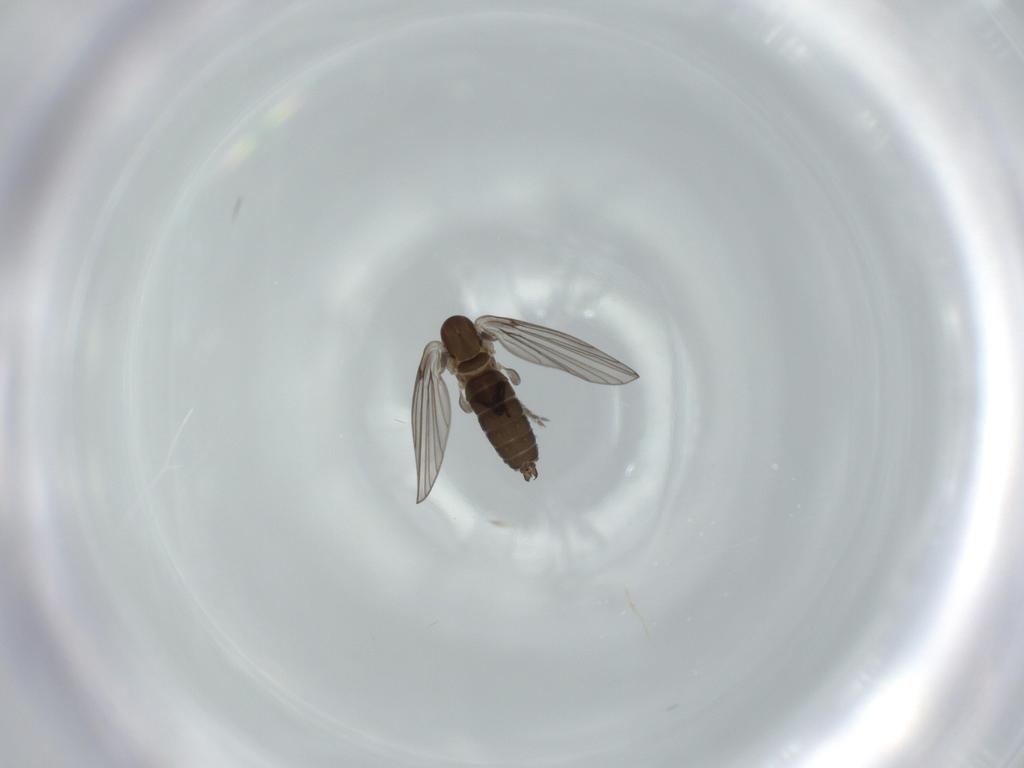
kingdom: Animalia
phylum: Arthropoda
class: Insecta
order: Diptera
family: Psychodidae
